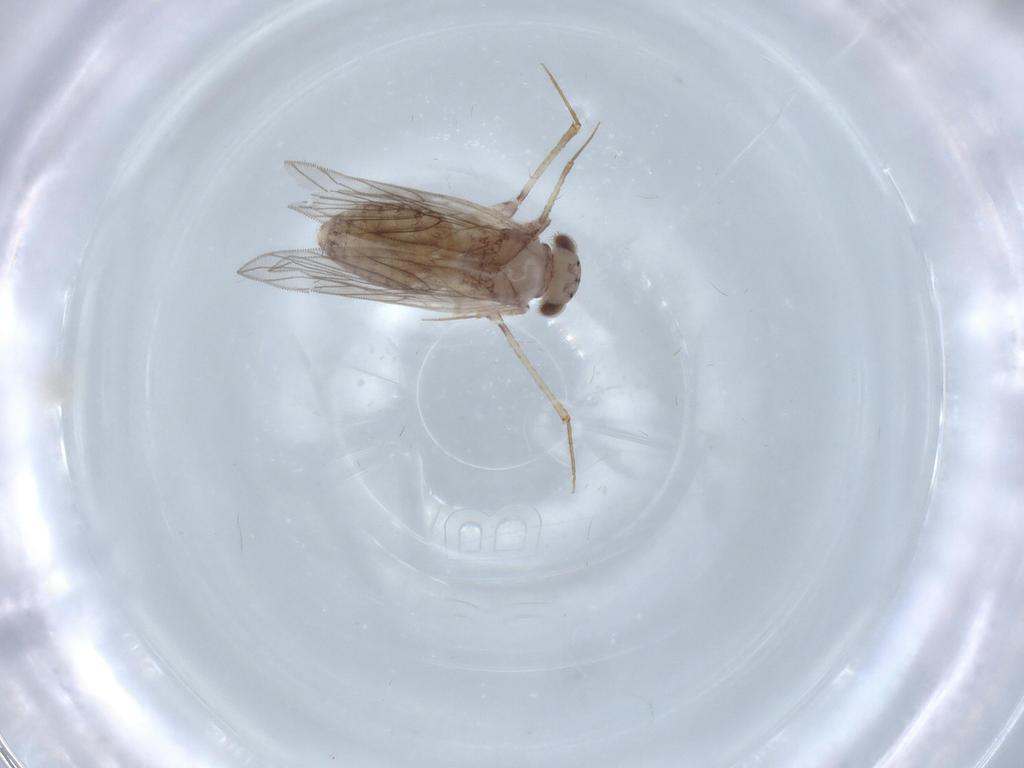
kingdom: Animalia
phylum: Arthropoda
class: Insecta
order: Psocodea
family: Lepidopsocidae
